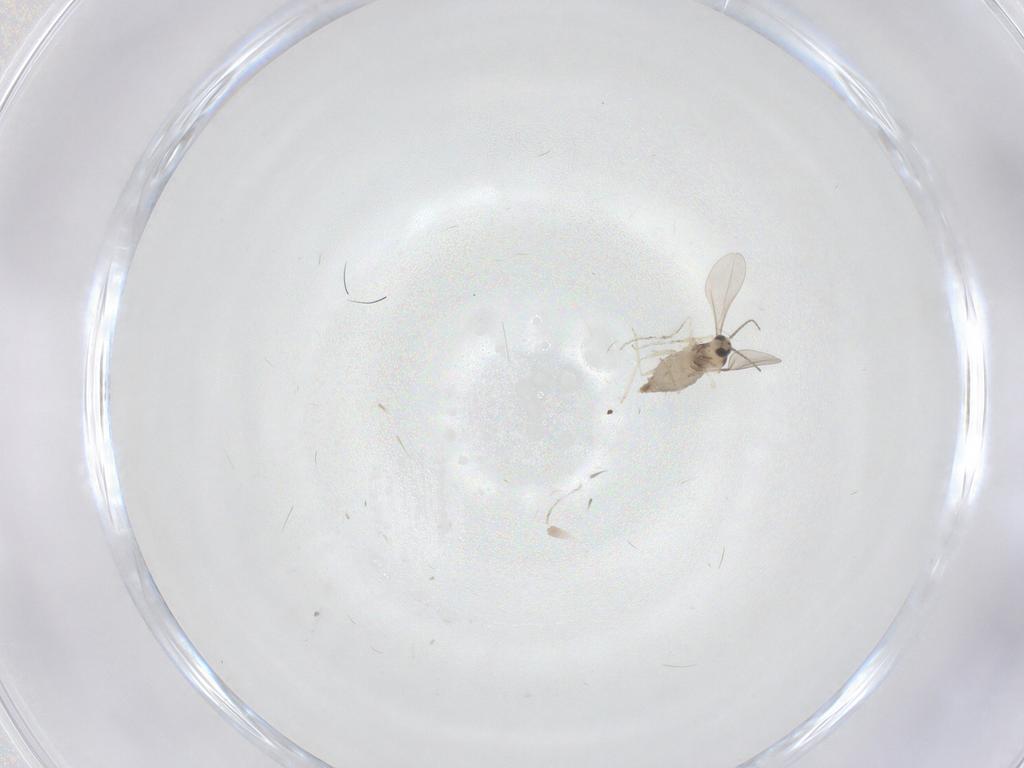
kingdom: Animalia
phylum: Arthropoda
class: Insecta
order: Diptera
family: Cecidomyiidae
